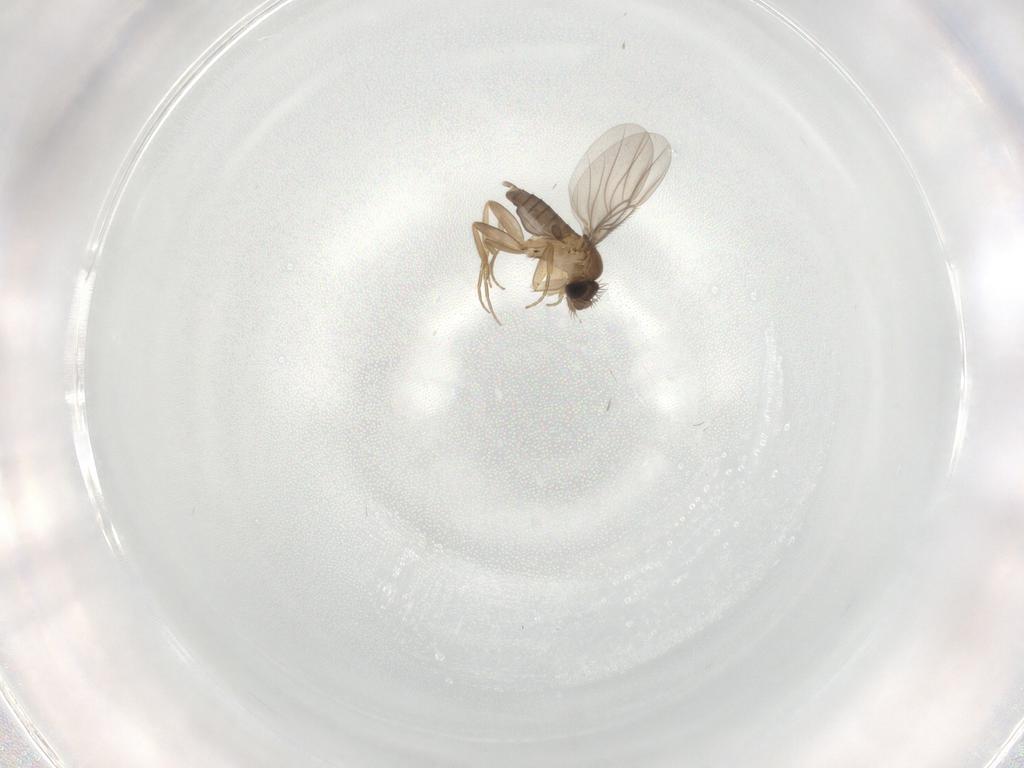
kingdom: Animalia
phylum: Arthropoda
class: Insecta
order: Diptera
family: Phoridae
